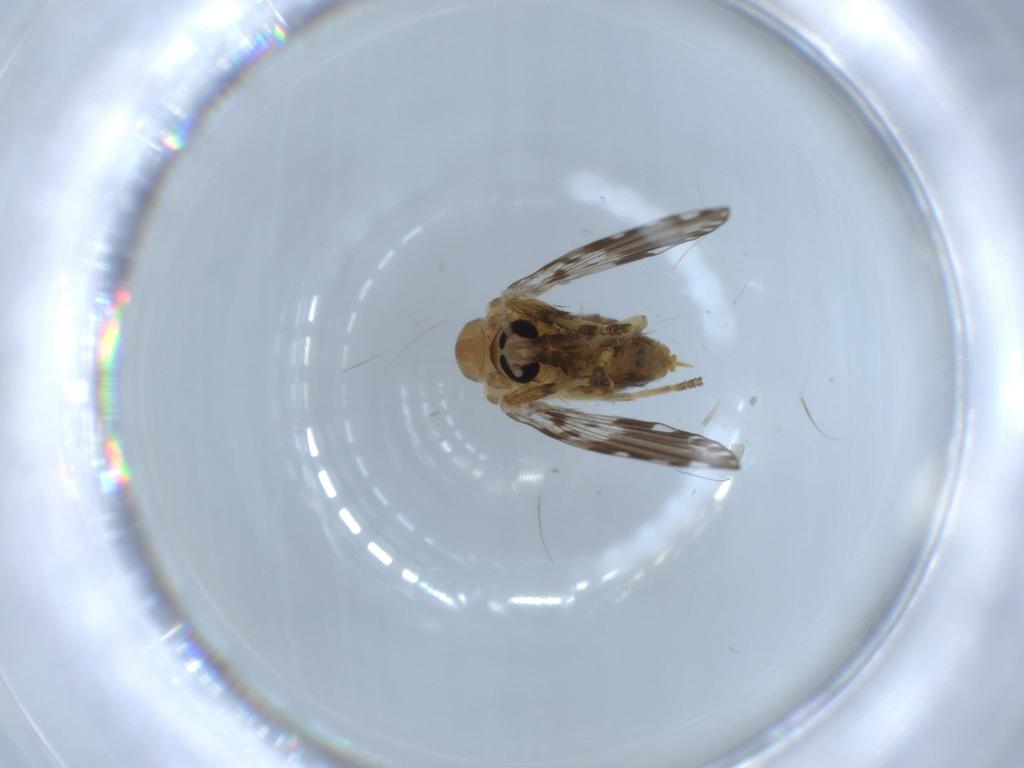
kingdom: Animalia
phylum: Arthropoda
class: Insecta
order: Diptera
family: Psychodidae
